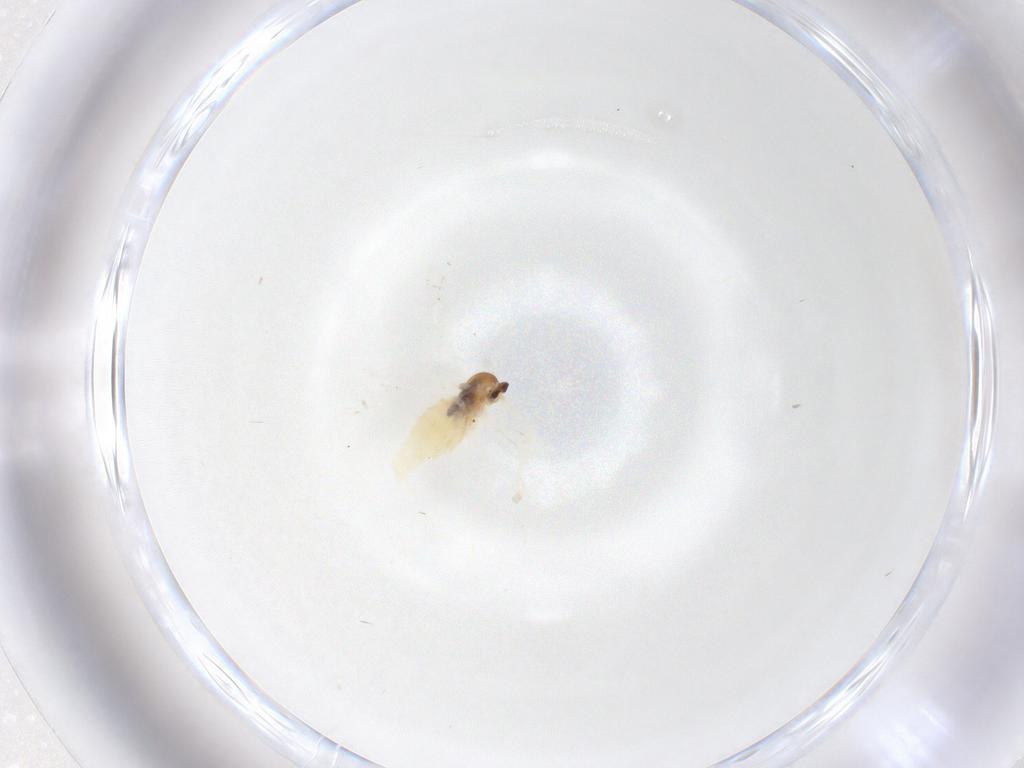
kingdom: Animalia
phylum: Arthropoda
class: Insecta
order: Diptera
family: Cecidomyiidae
